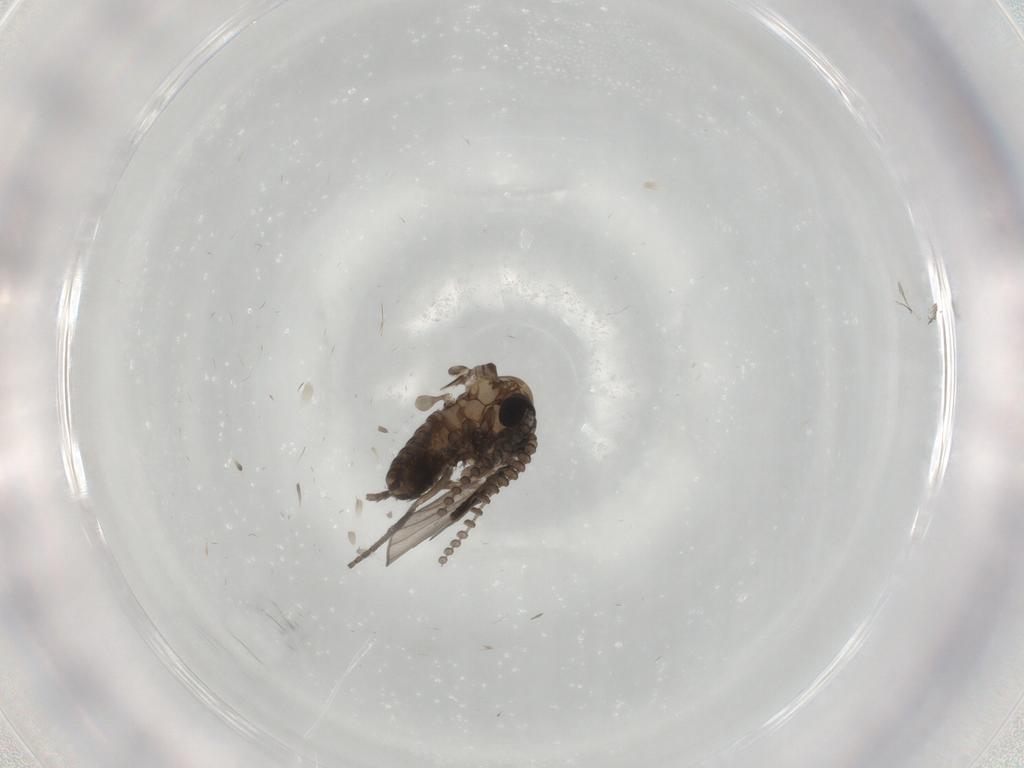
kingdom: Animalia
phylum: Arthropoda
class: Insecta
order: Diptera
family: Psychodidae
